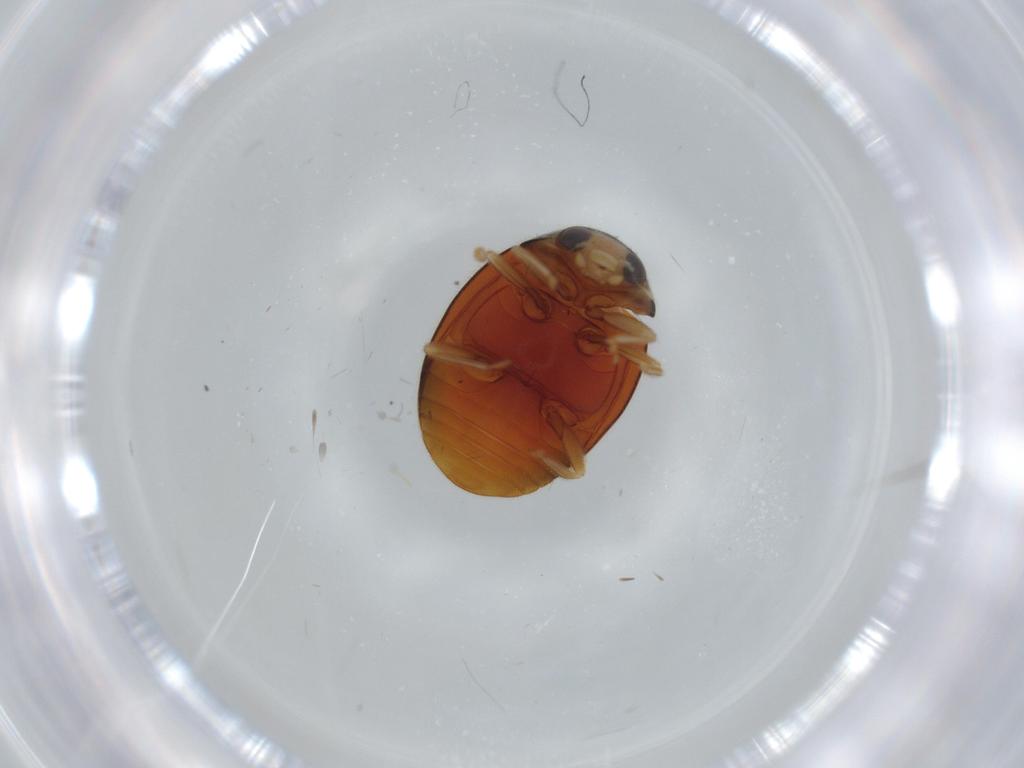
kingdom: Animalia
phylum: Arthropoda
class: Insecta
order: Coleoptera
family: Coccinellidae
